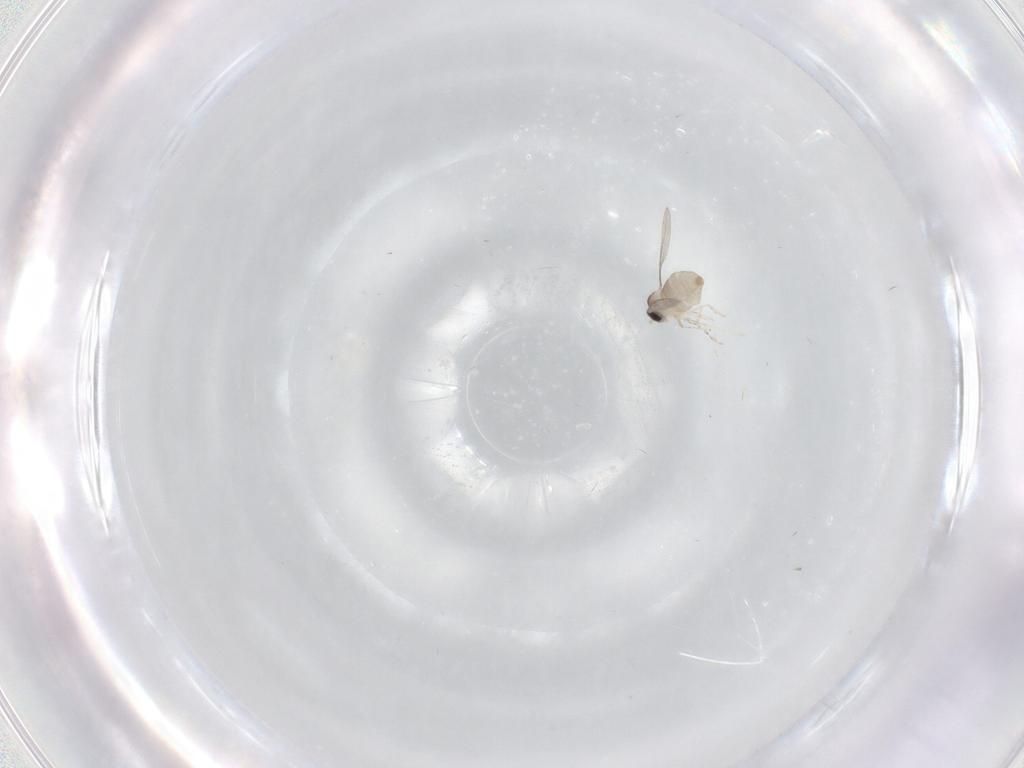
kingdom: Animalia
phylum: Arthropoda
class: Insecta
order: Diptera
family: Cecidomyiidae
